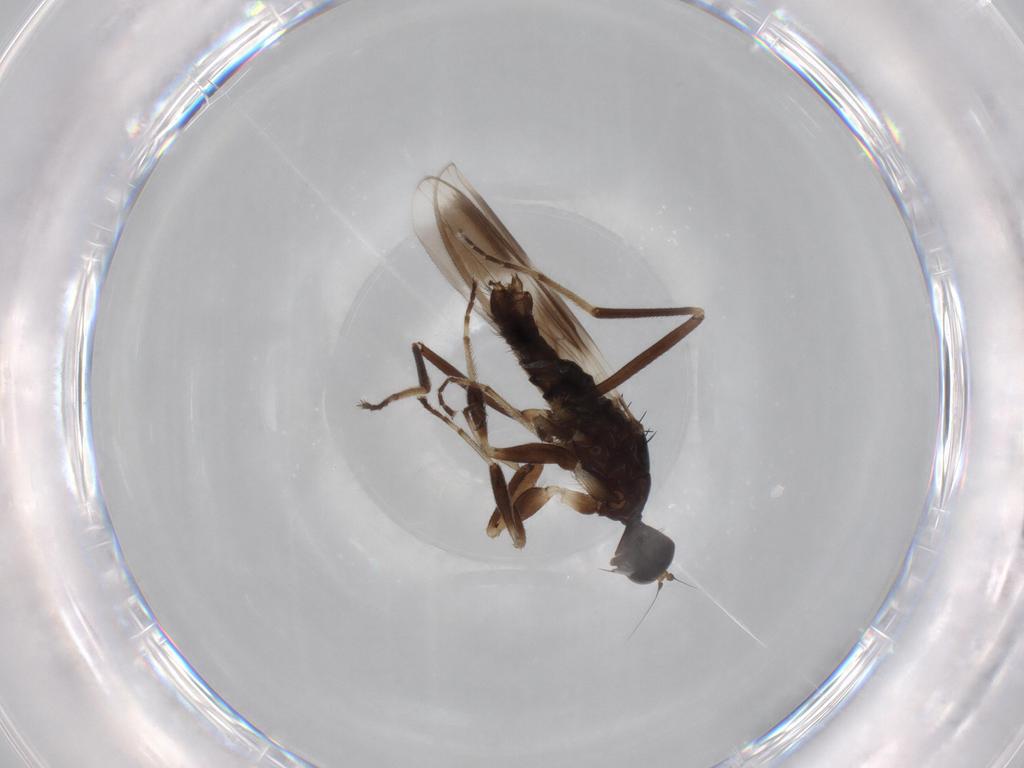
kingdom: Animalia
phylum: Arthropoda
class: Insecta
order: Diptera
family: Hybotidae
